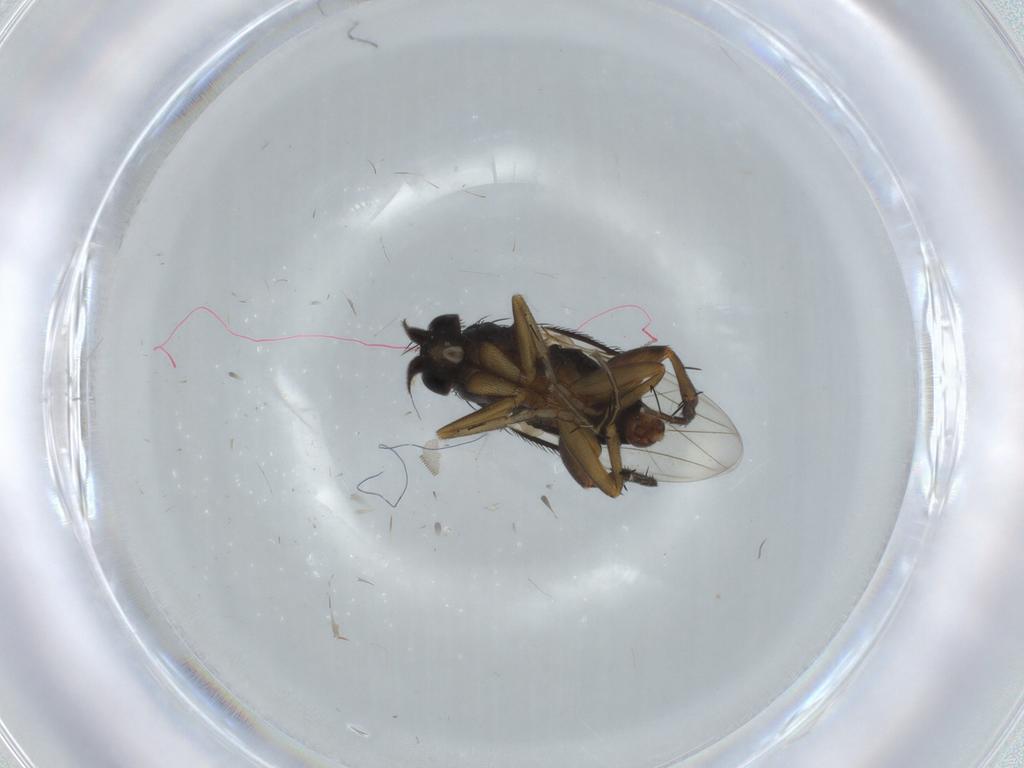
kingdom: Animalia
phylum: Arthropoda
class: Insecta
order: Diptera
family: Phoridae
